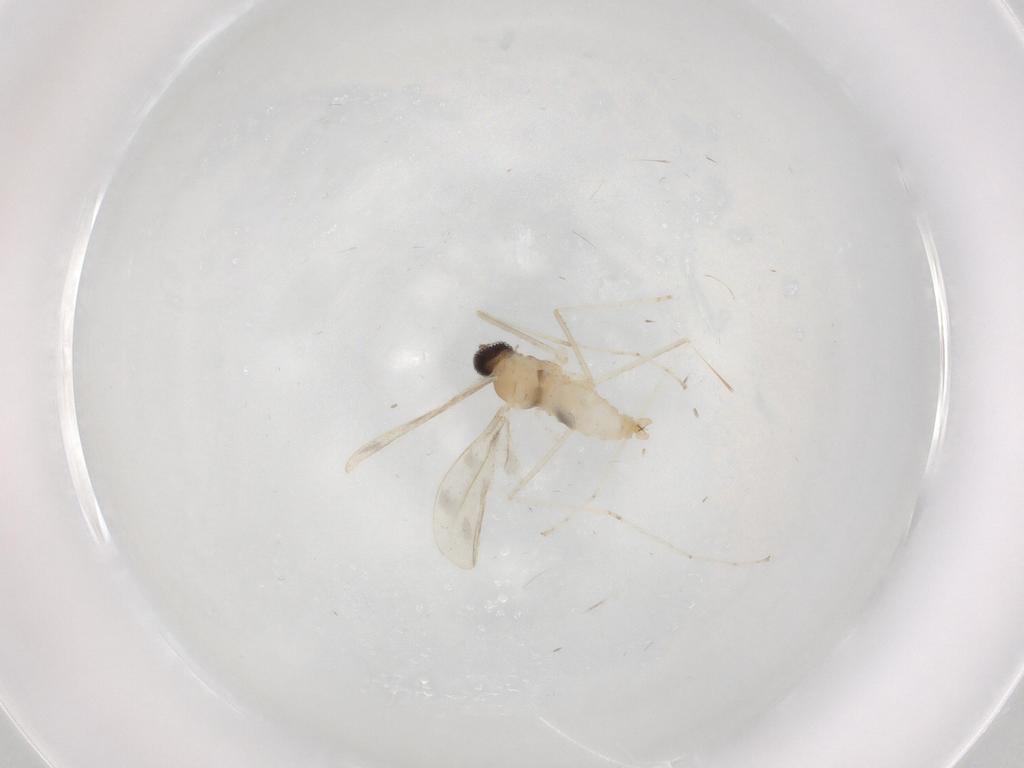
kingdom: Animalia
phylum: Arthropoda
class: Insecta
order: Diptera
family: Cecidomyiidae
